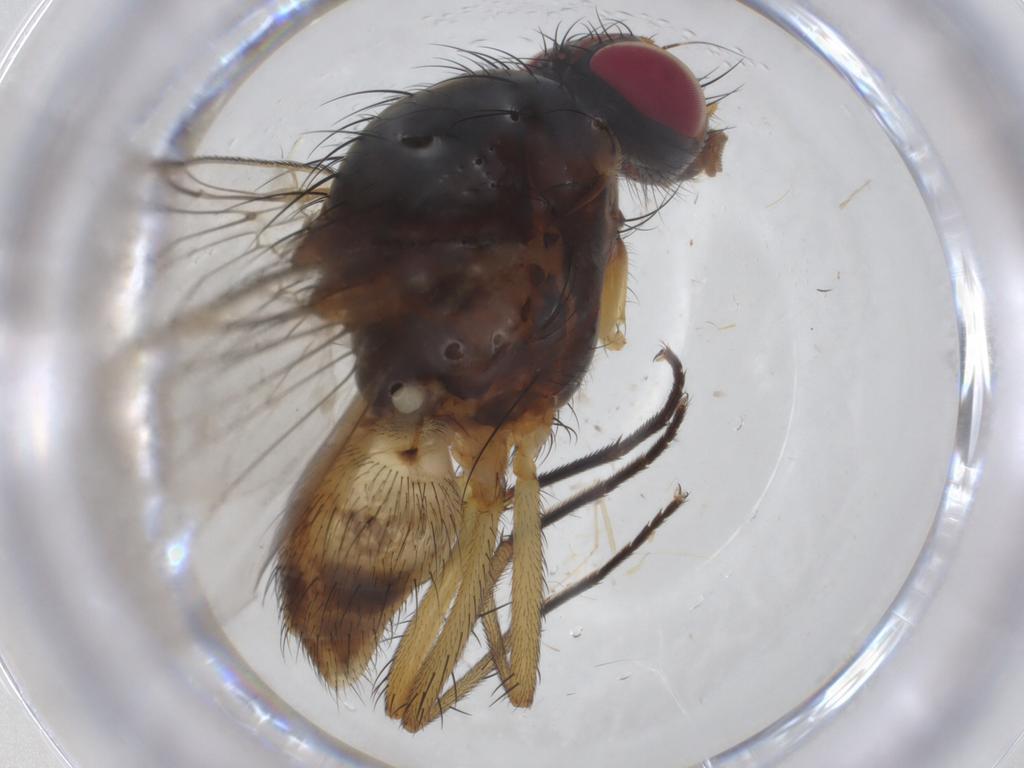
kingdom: Animalia
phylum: Arthropoda
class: Insecta
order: Diptera
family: Anthomyiidae
